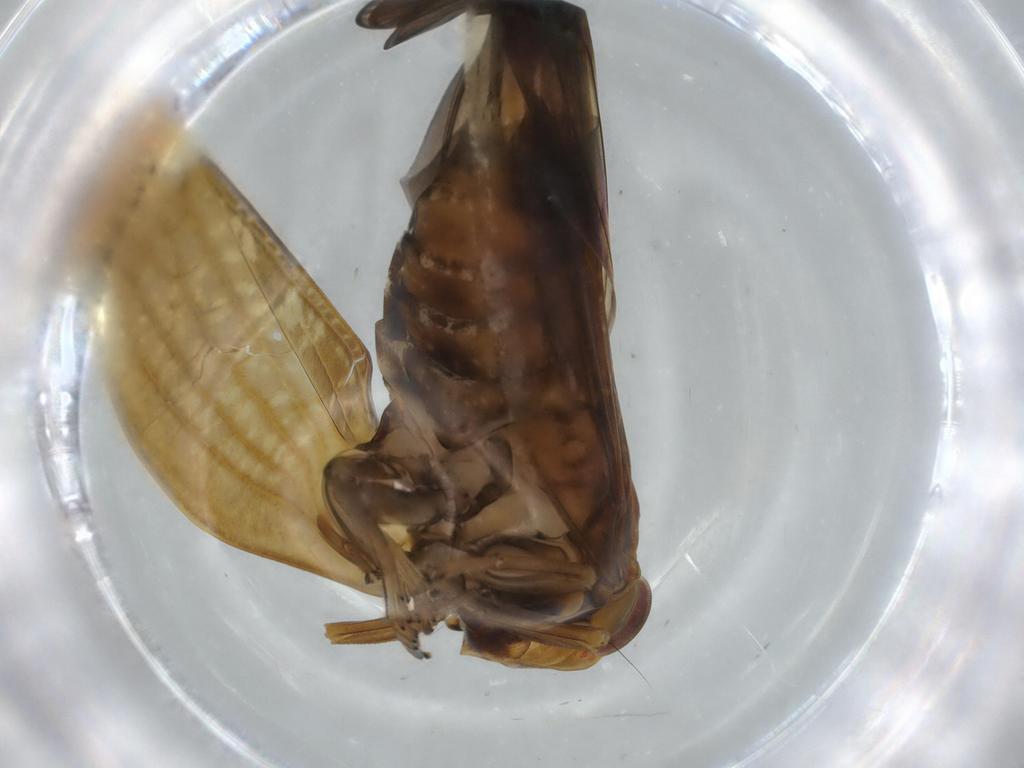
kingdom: Animalia
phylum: Arthropoda
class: Insecta
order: Hemiptera
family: Nogodinidae
